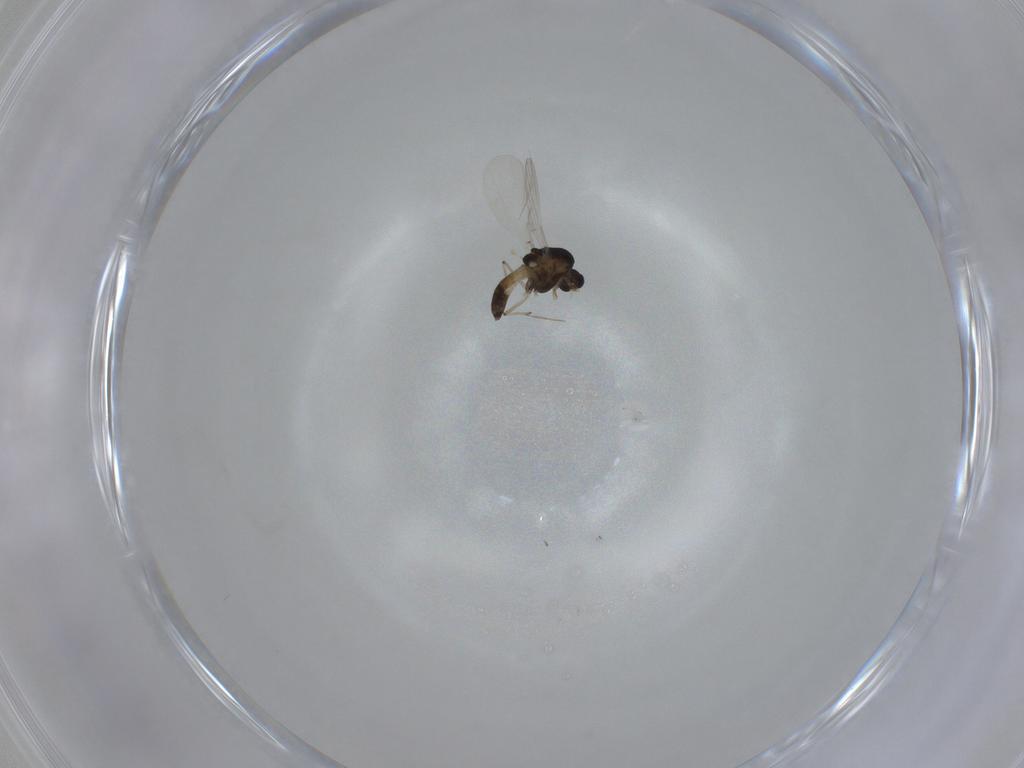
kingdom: Animalia
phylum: Arthropoda
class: Insecta
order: Diptera
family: Chironomidae
